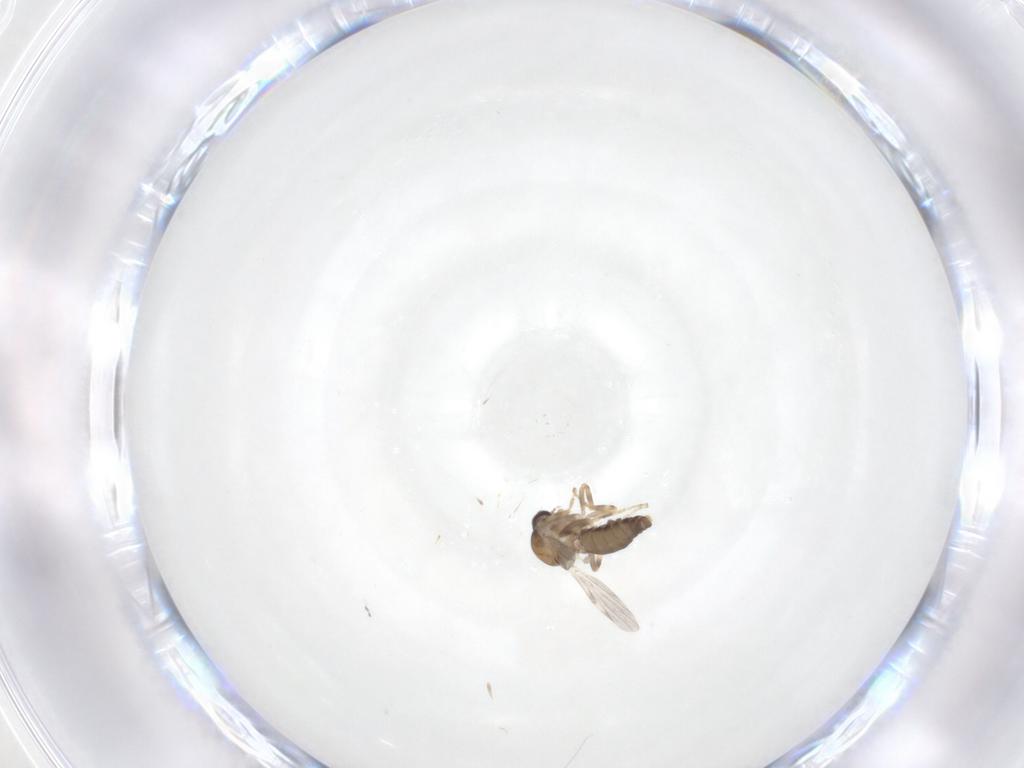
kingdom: Animalia
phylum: Arthropoda
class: Insecta
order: Diptera
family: Ceratopogonidae
